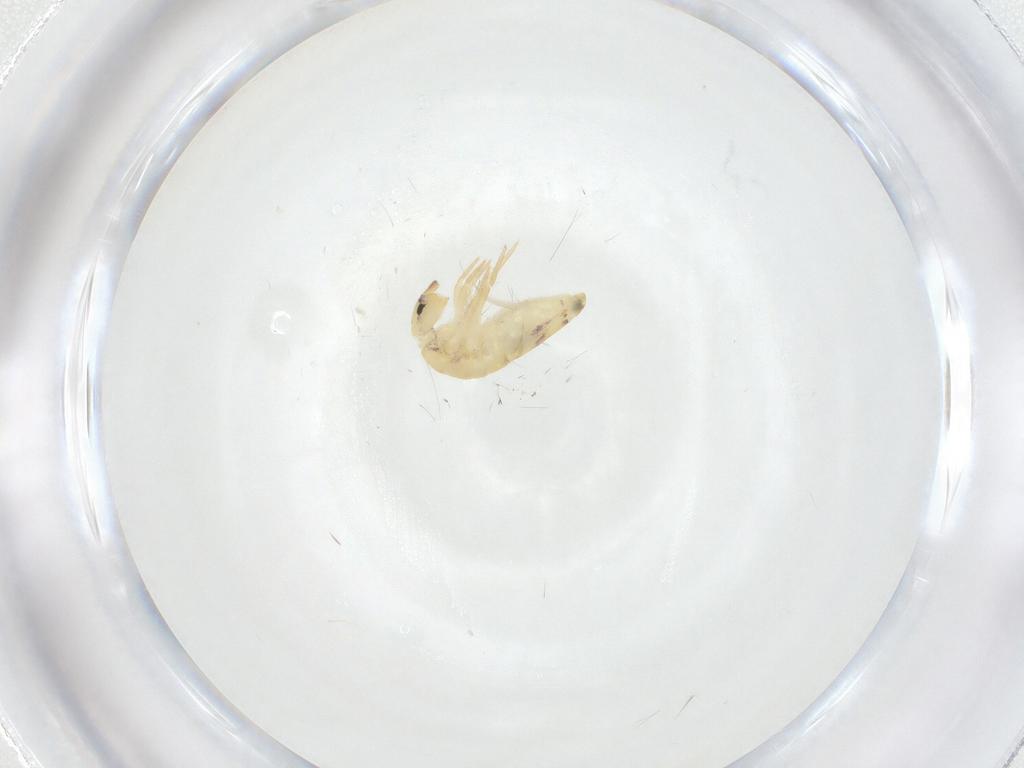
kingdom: Animalia
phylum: Arthropoda
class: Collembola
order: Entomobryomorpha
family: Entomobryidae
